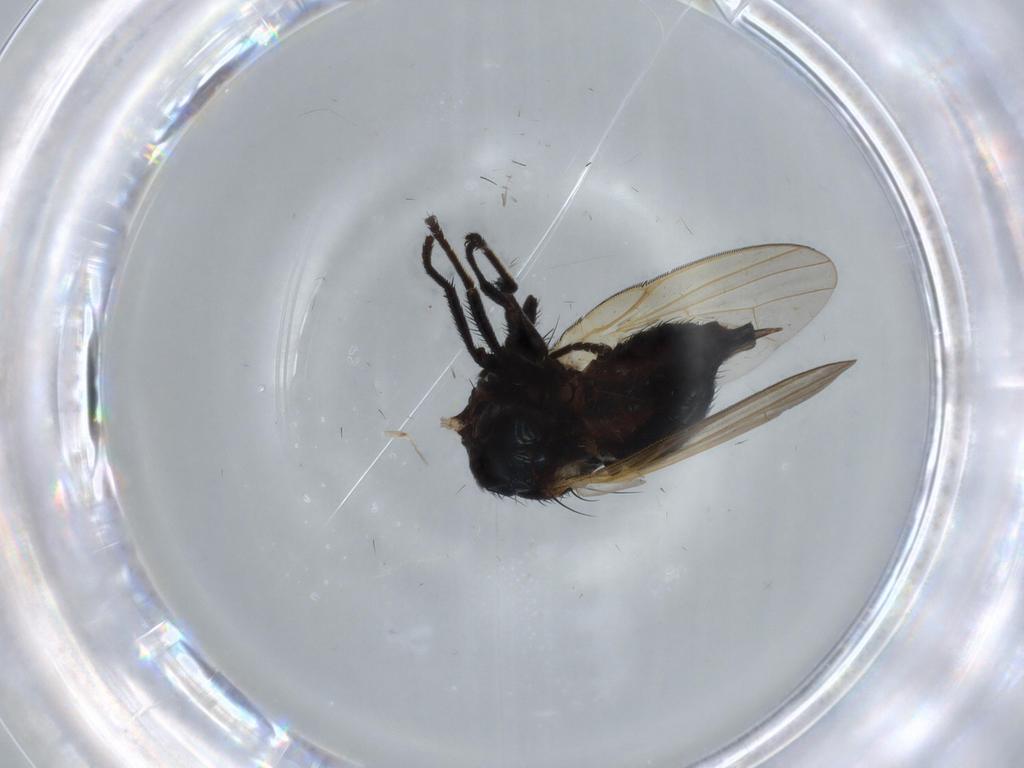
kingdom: Animalia
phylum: Arthropoda
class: Insecta
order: Diptera
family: Lonchaeidae
